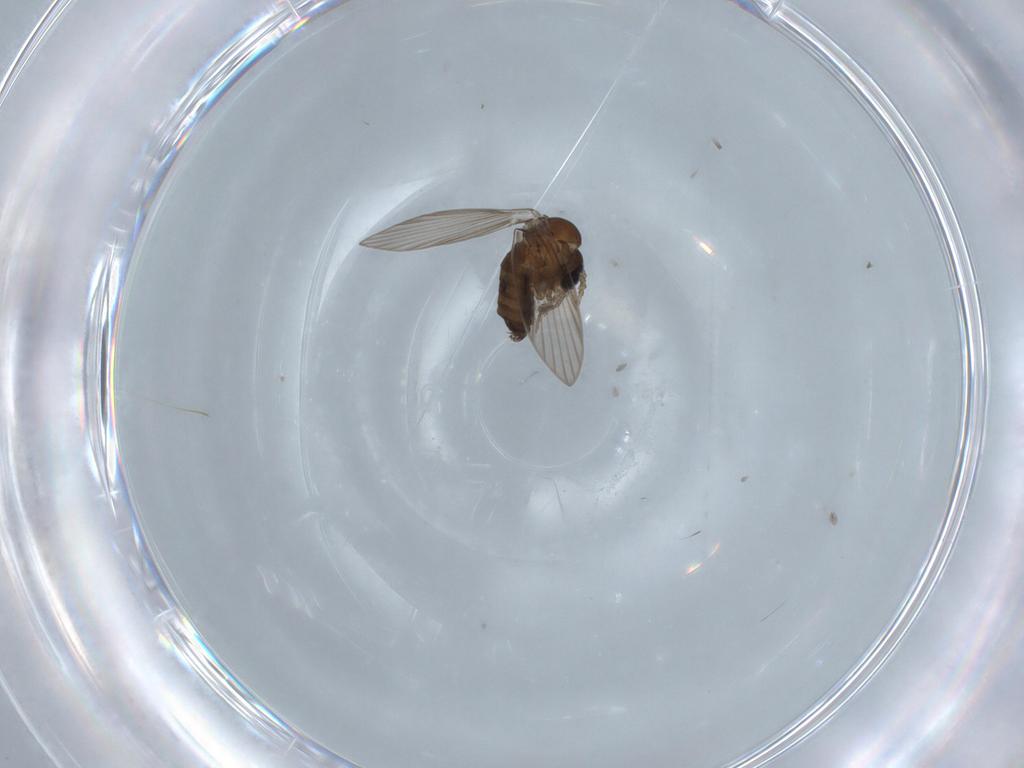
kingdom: Animalia
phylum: Arthropoda
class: Insecta
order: Diptera
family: Psychodidae
